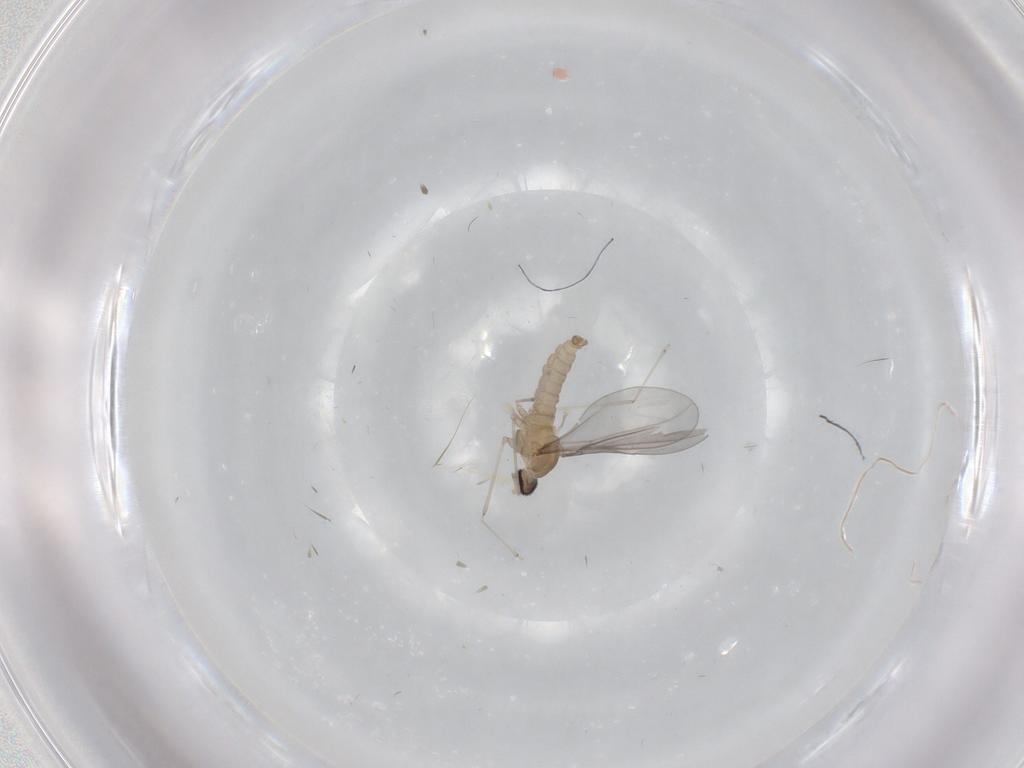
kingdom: Animalia
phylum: Arthropoda
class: Insecta
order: Diptera
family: Cecidomyiidae
